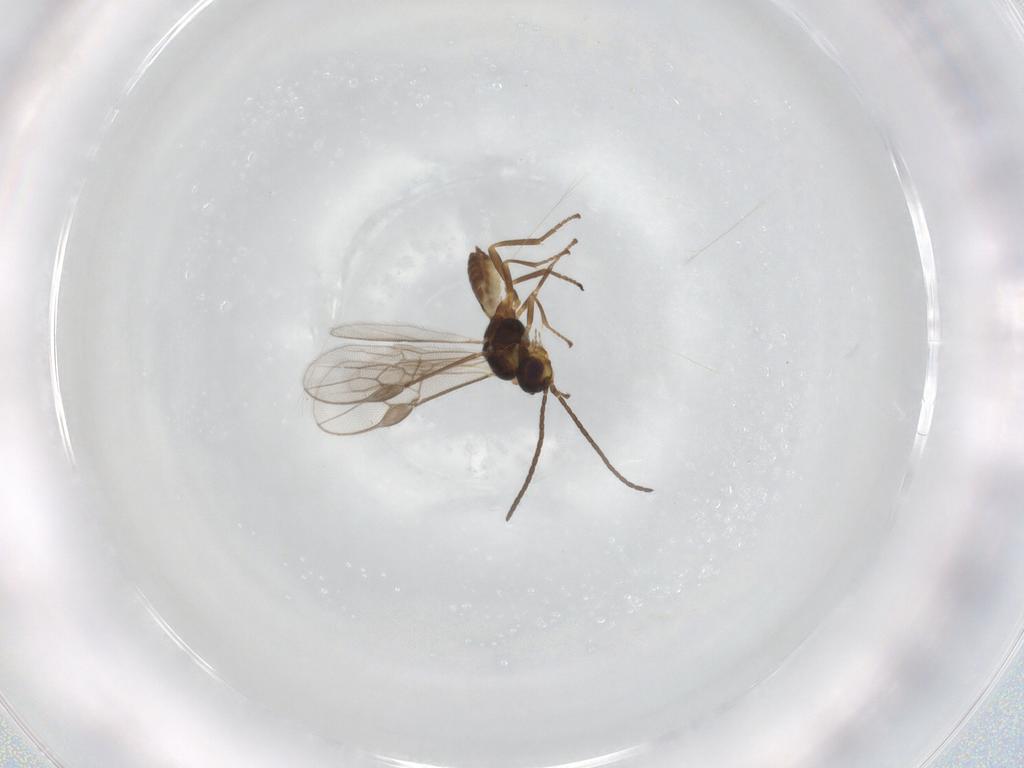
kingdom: Animalia
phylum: Arthropoda
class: Insecta
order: Hymenoptera
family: Braconidae
